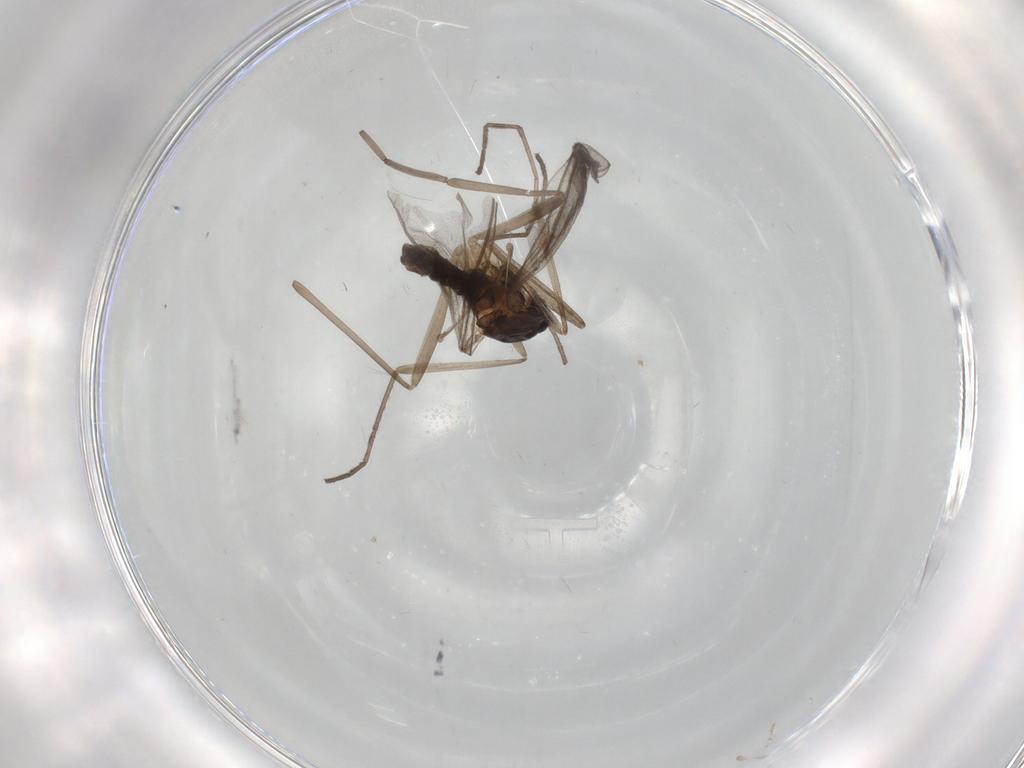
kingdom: Animalia
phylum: Arthropoda
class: Insecta
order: Diptera
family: Cecidomyiidae
